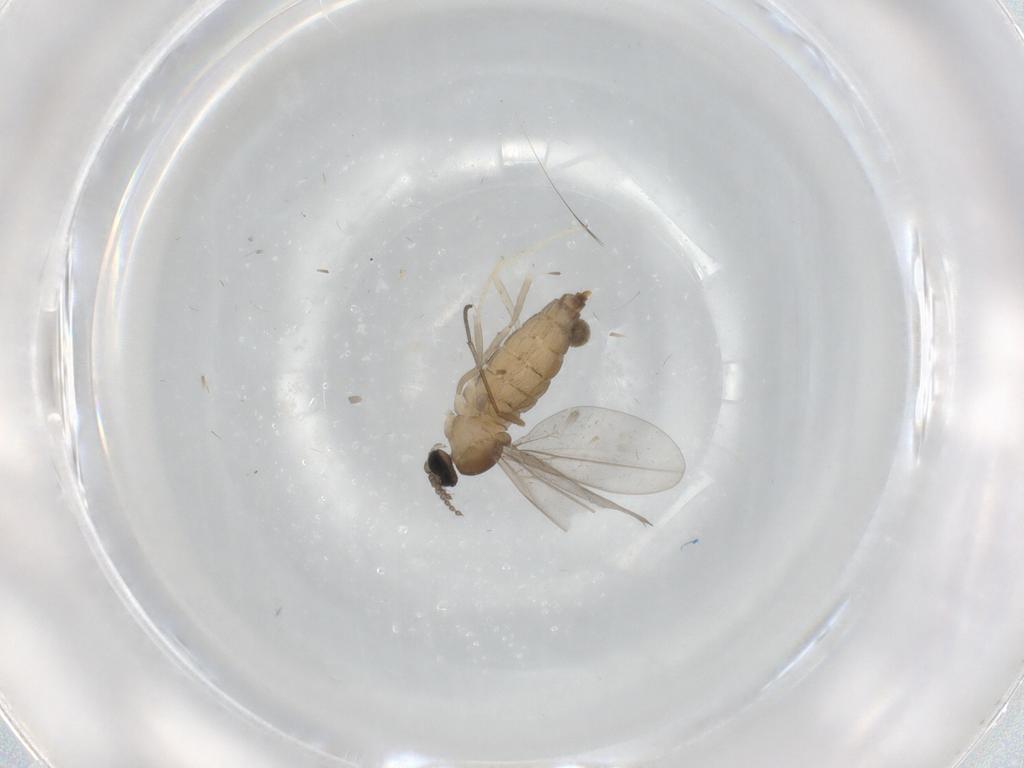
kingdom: Animalia
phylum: Arthropoda
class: Insecta
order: Diptera
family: Cecidomyiidae
